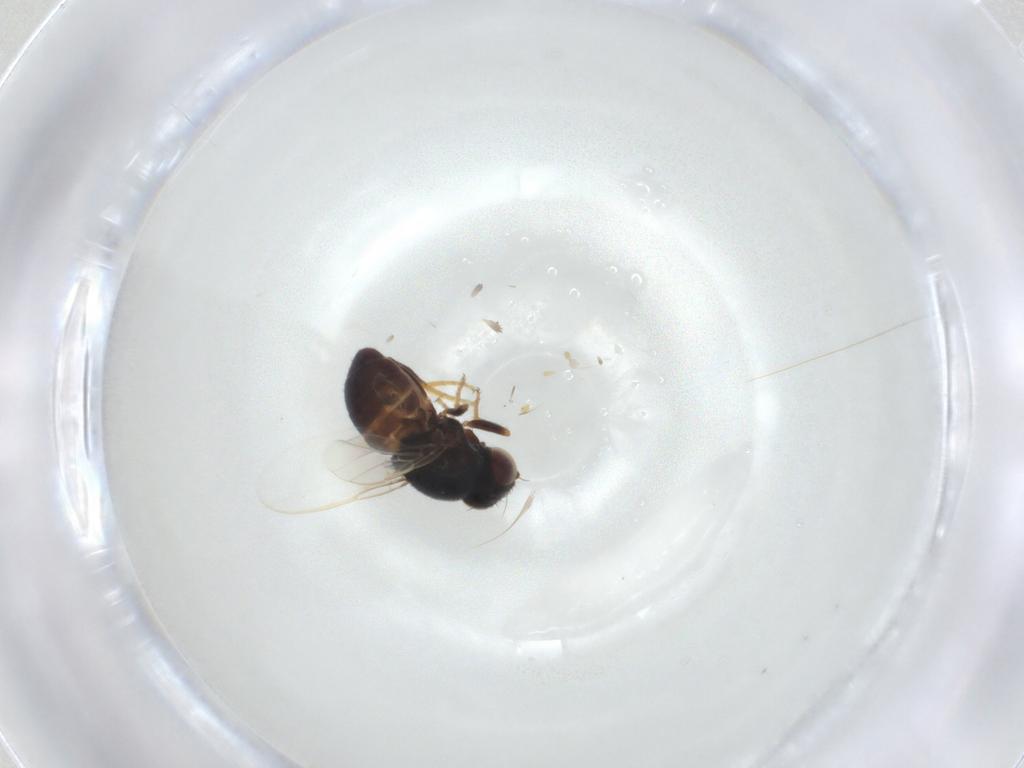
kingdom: Animalia
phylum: Arthropoda
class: Insecta
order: Diptera
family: Chloropidae
